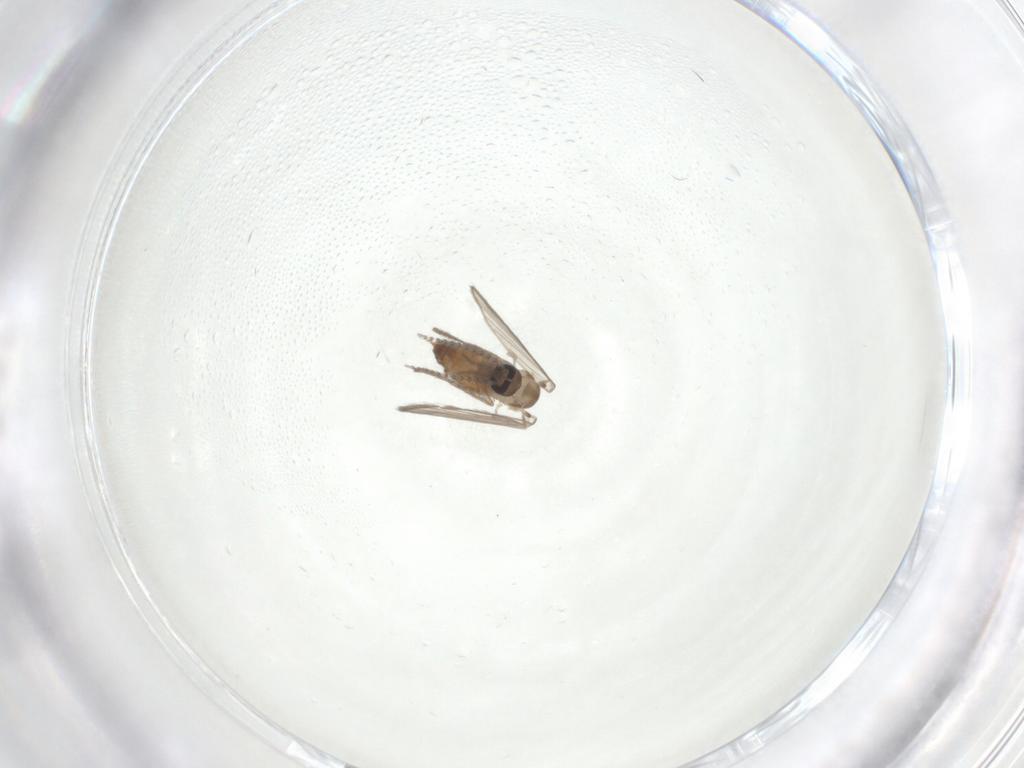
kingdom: Animalia
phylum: Arthropoda
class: Insecta
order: Diptera
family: Psychodidae
